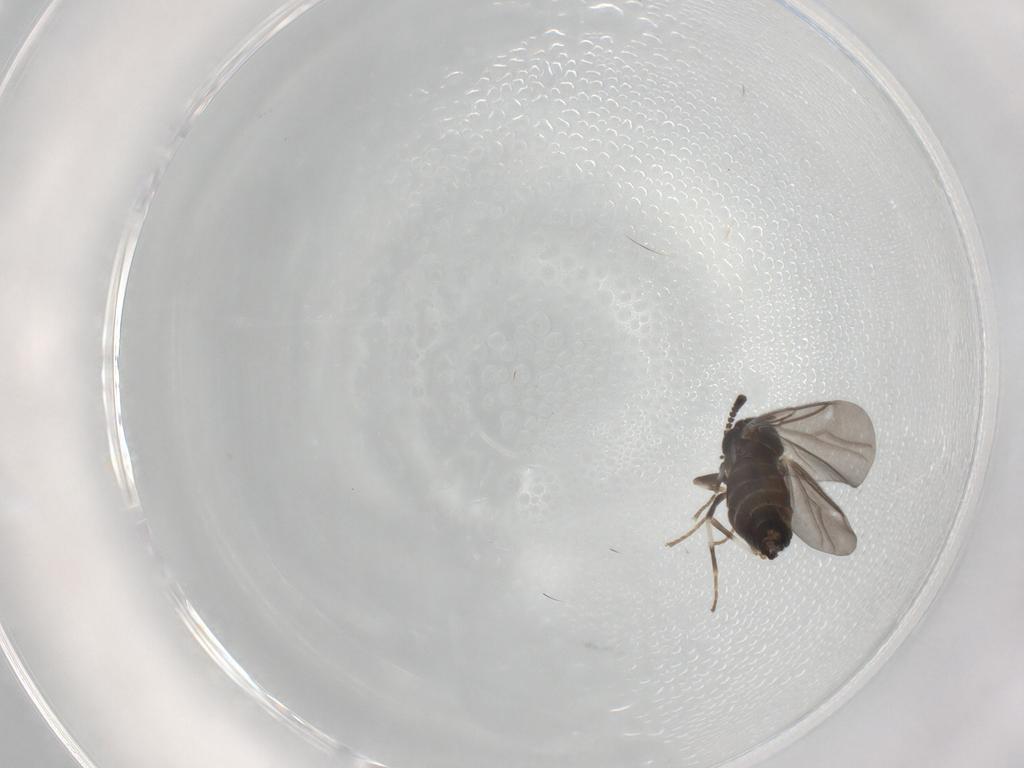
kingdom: Animalia
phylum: Arthropoda
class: Insecta
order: Diptera
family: Scatopsidae
